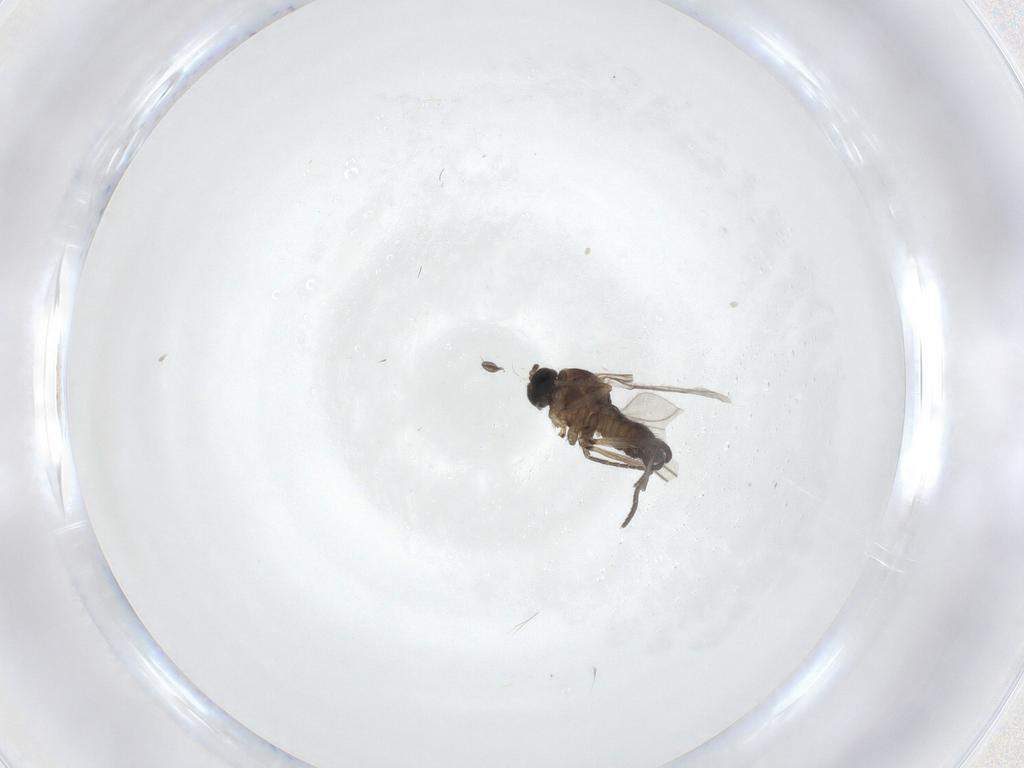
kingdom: Animalia
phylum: Arthropoda
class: Insecta
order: Diptera
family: Sciaridae
